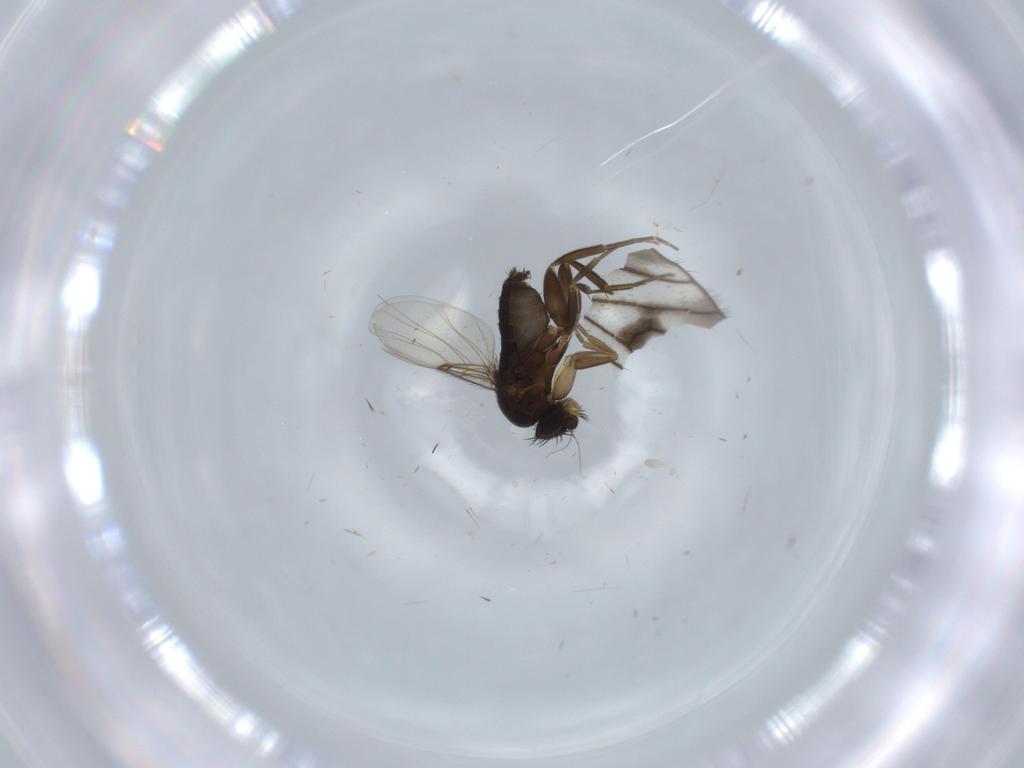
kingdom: Animalia
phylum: Arthropoda
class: Insecta
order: Diptera
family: Phoridae
